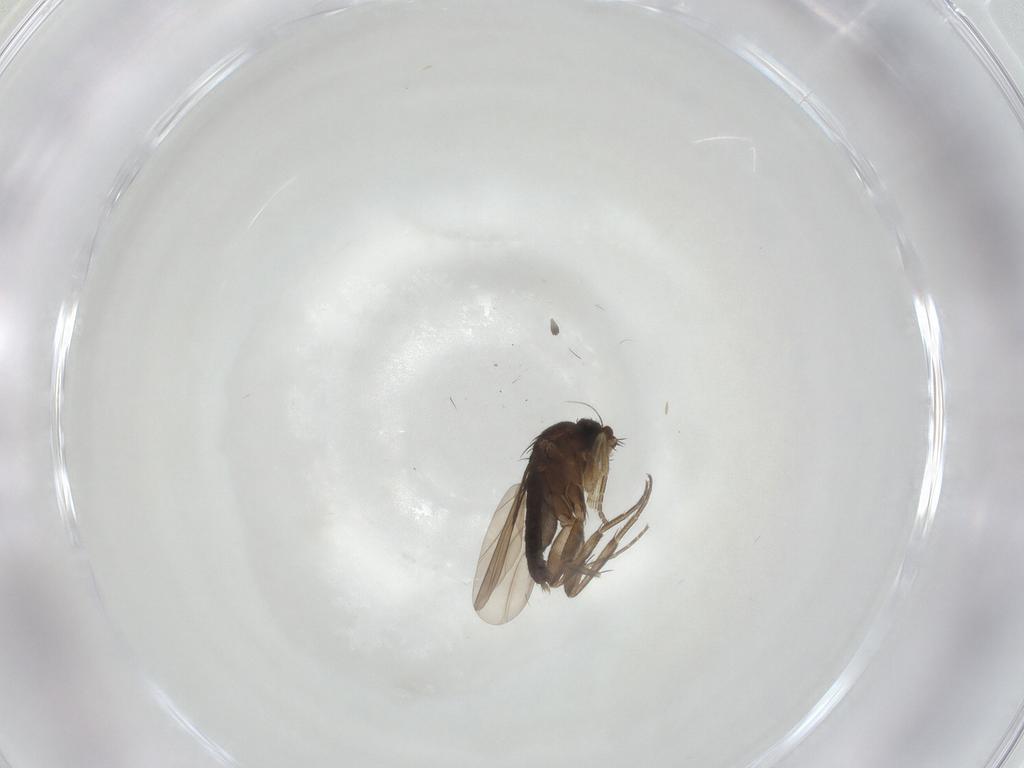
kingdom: Animalia
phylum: Arthropoda
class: Insecta
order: Diptera
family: Phoridae
